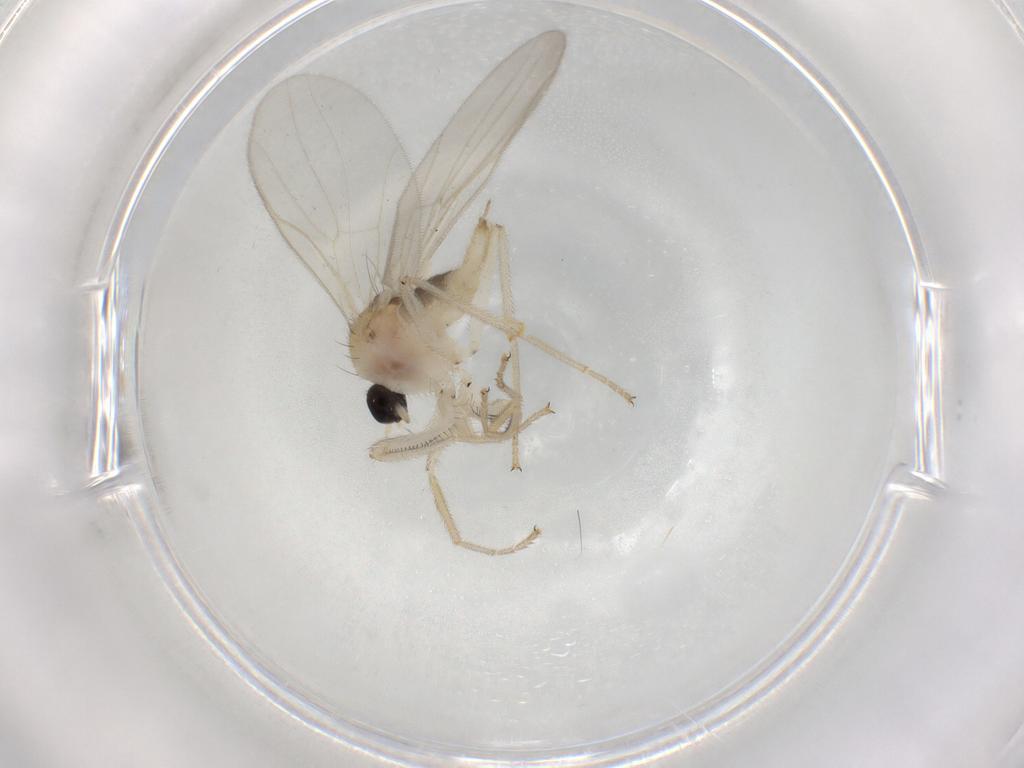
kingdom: Animalia
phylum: Arthropoda
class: Insecta
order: Diptera
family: Hybotidae
